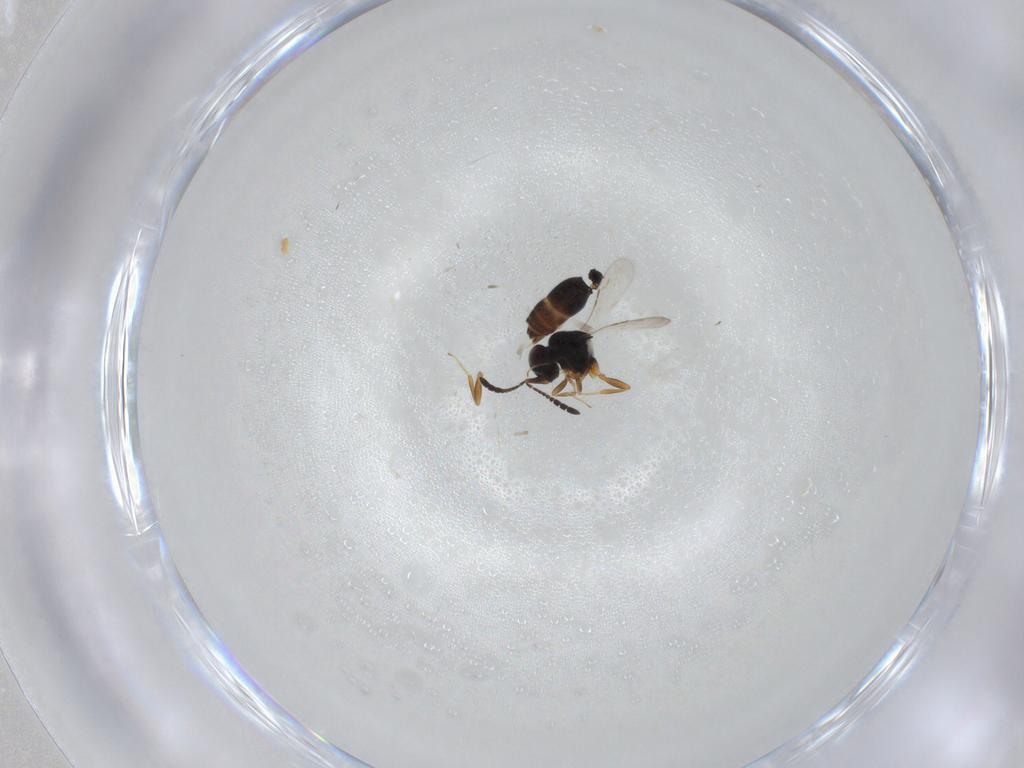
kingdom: Animalia
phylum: Arthropoda
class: Insecta
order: Hymenoptera
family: Ceraphronidae
